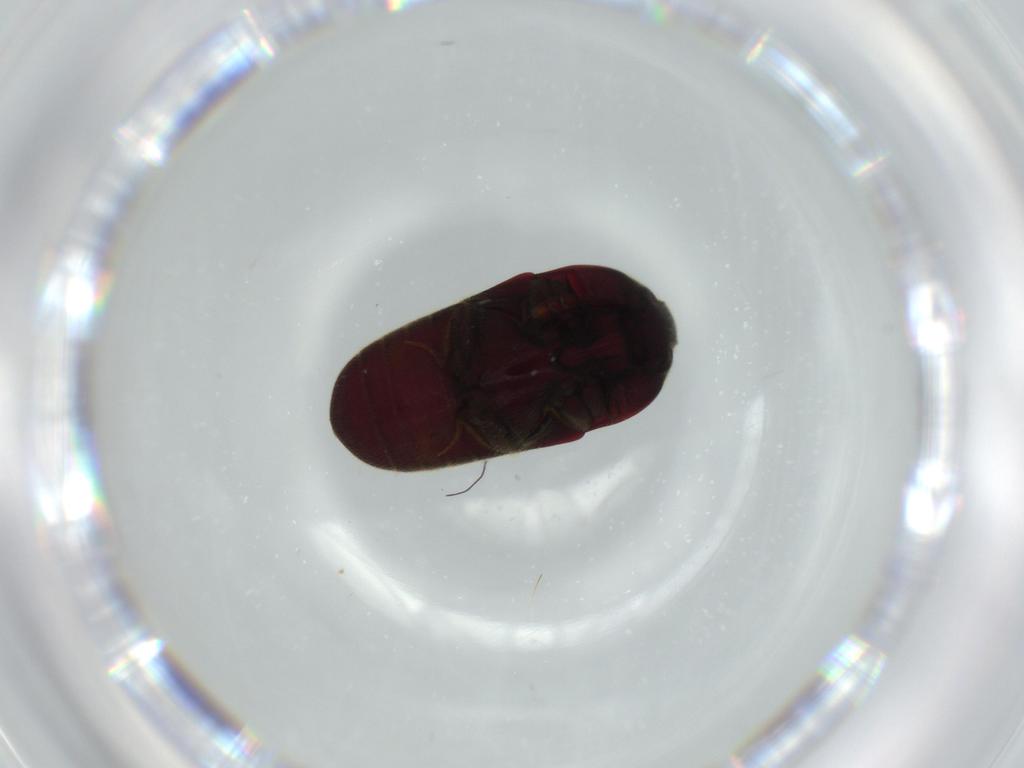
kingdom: Animalia
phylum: Arthropoda
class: Insecta
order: Coleoptera
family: Throscidae
